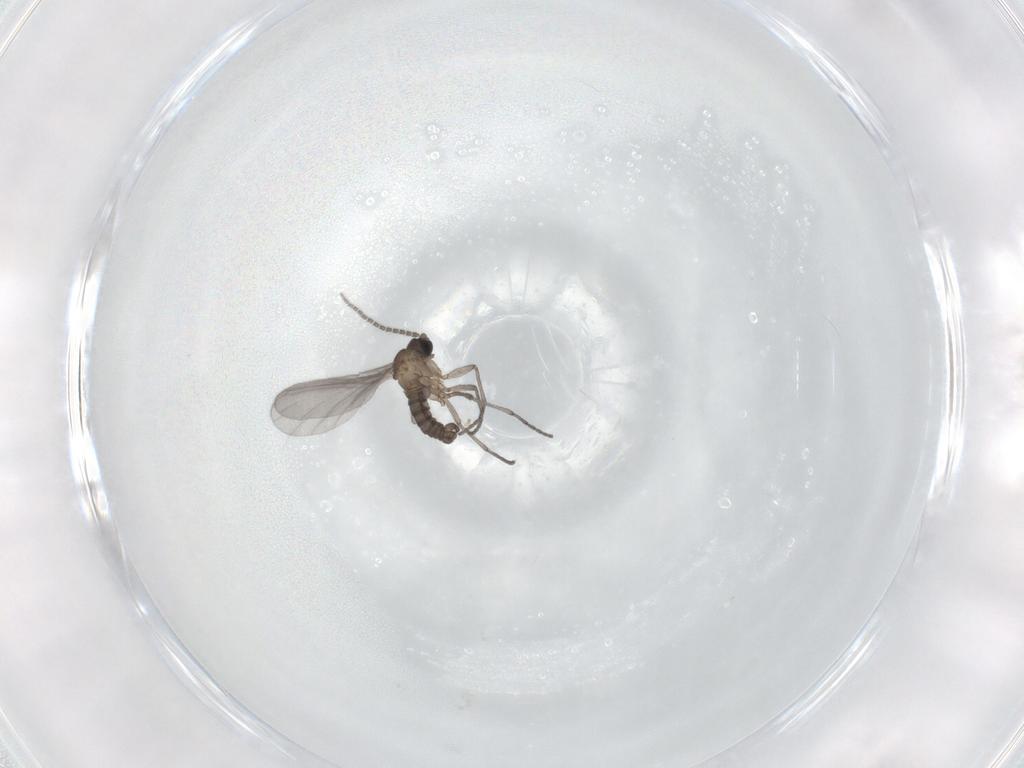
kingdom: Animalia
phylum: Arthropoda
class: Insecta
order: Diptera
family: Sciaridae
